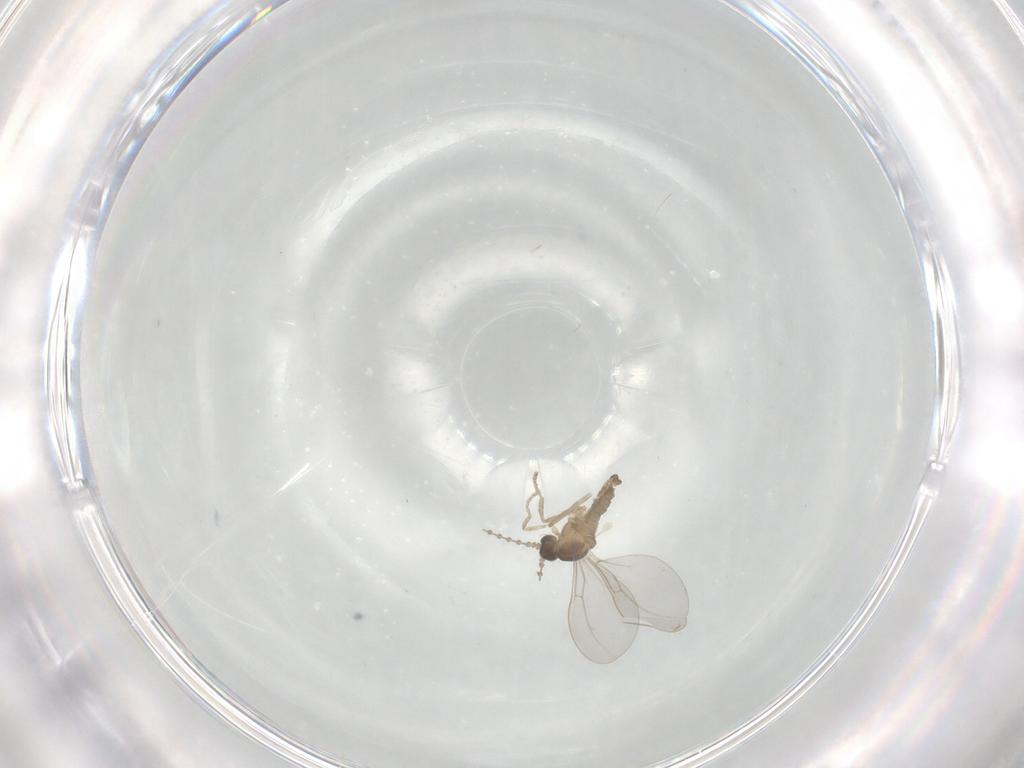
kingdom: Animalia
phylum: Arthropoda
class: Insecta
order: Diptera
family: Cecidomyiidae
